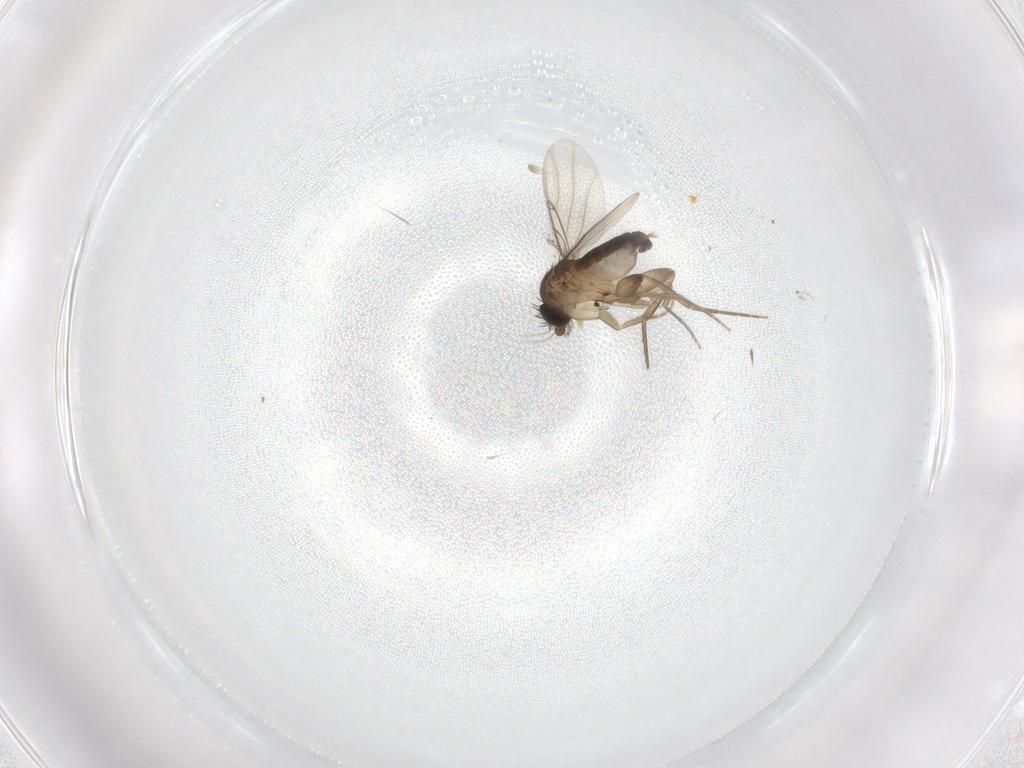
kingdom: Animalia
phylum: Arthropoda
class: Insecta
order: Diptera
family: Phoridae
